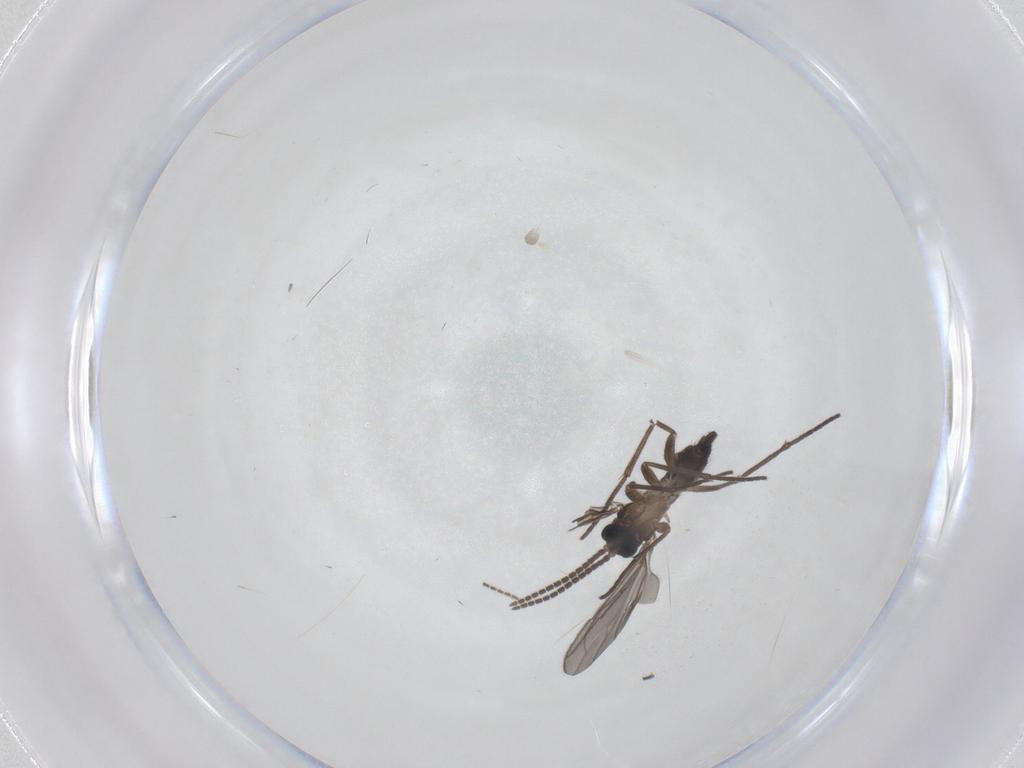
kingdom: Animalia
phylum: Arthropoda
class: Insecta
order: Diptera
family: Sciaridae
